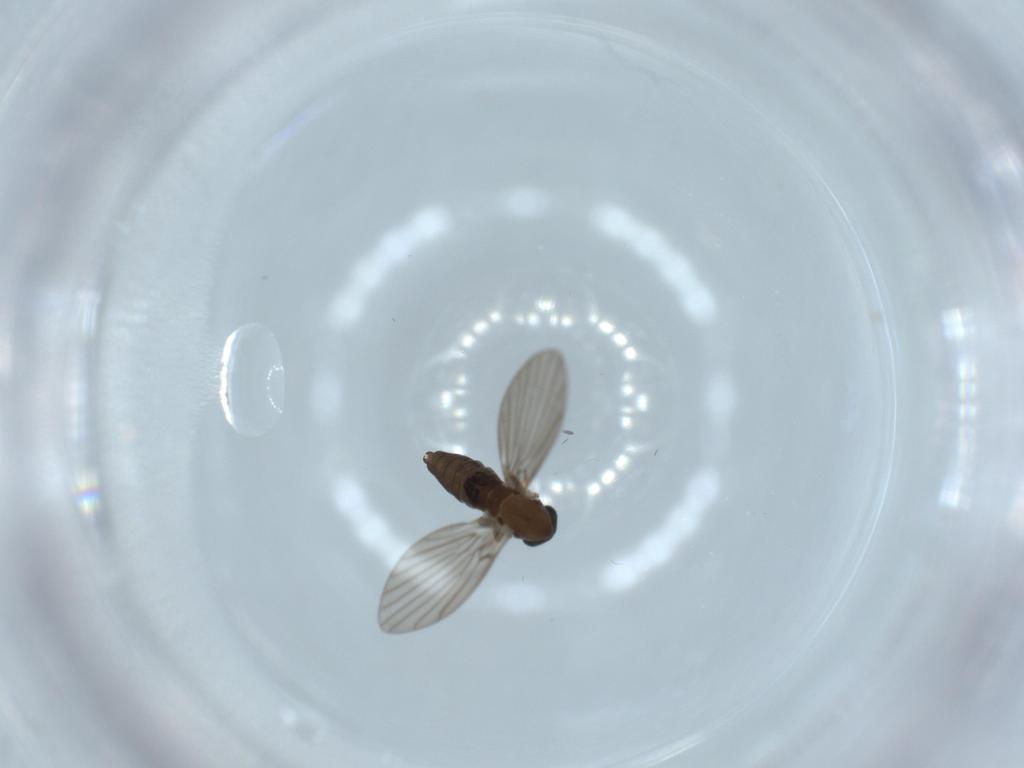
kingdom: Animalia
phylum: Arthropoda
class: Insecta
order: Diptera
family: Psychodidae
